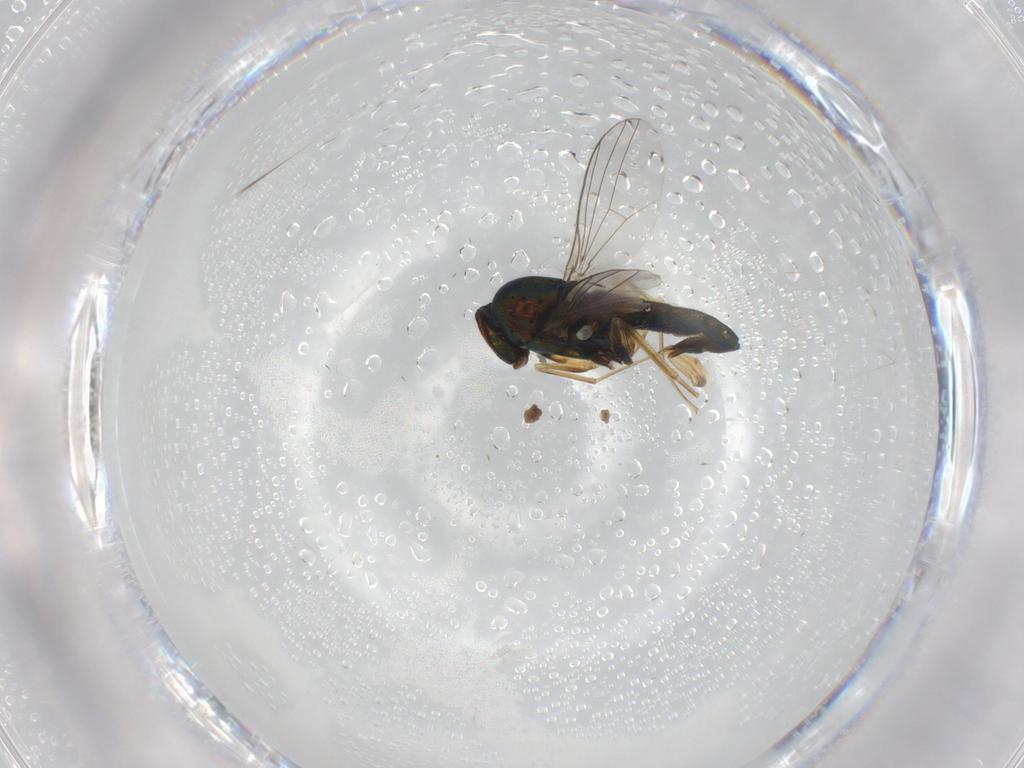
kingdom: Animalia
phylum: Arthropoda
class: Insecta
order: Diptera
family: Dolichopodidae
